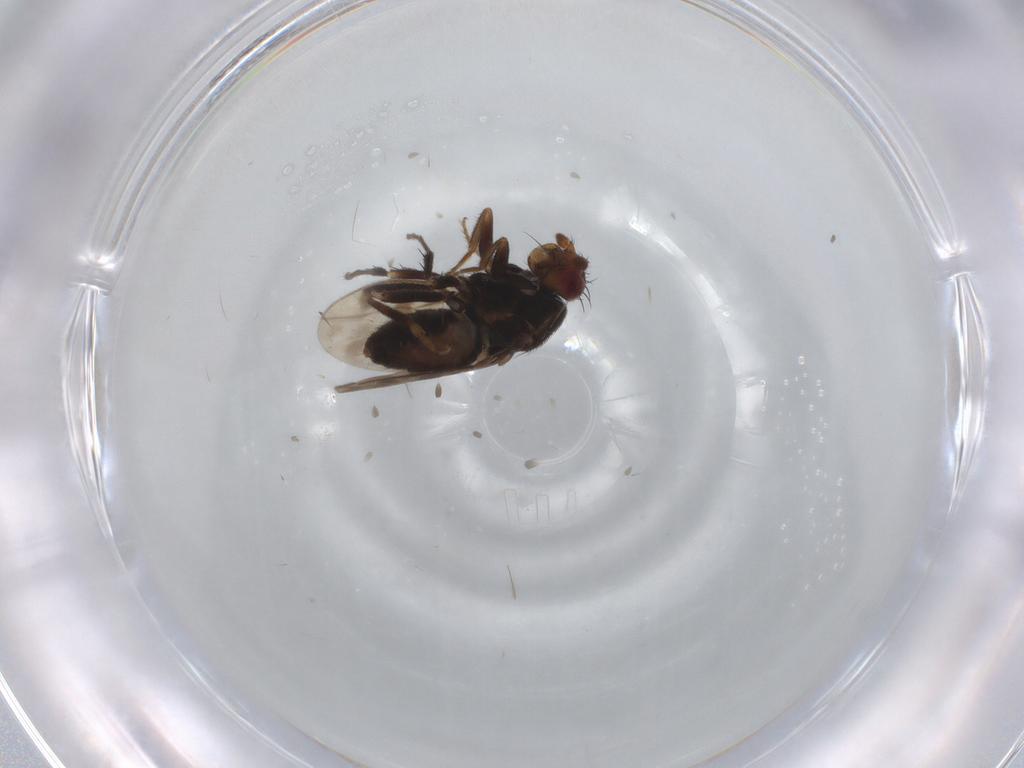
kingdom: Animalia
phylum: Arthropoda
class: Insecta
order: Diptera
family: Sphaeroceridae
